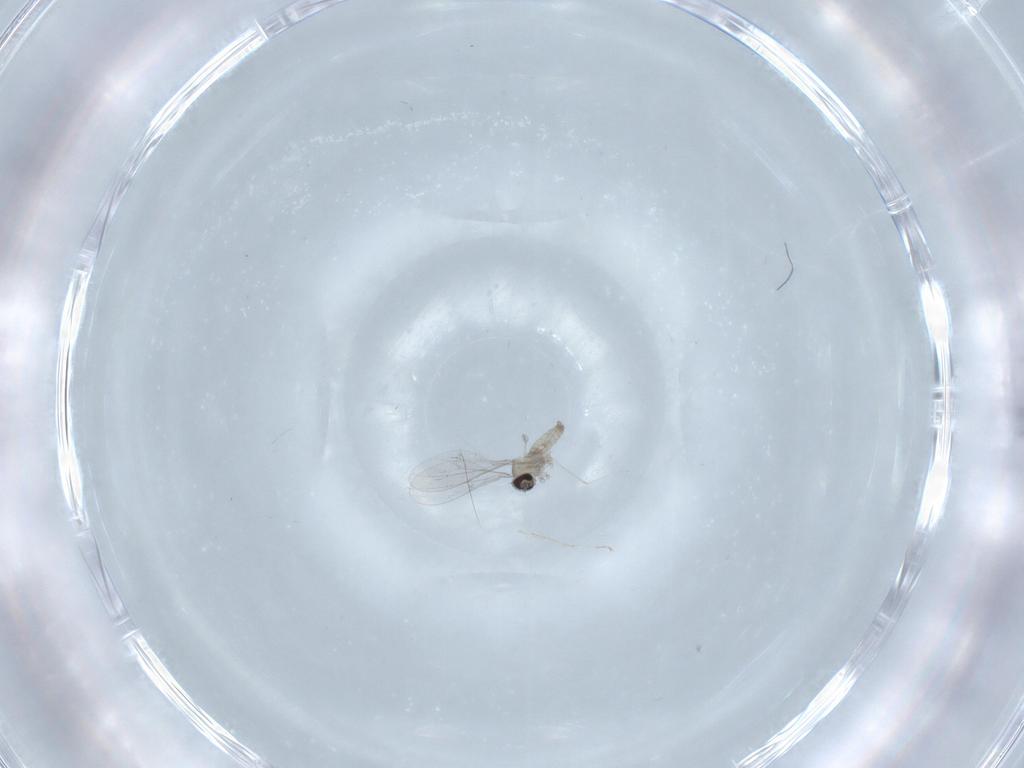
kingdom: Animalia
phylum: Arthropoda
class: Insecta
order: Diptera
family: Cecidomyiidae
